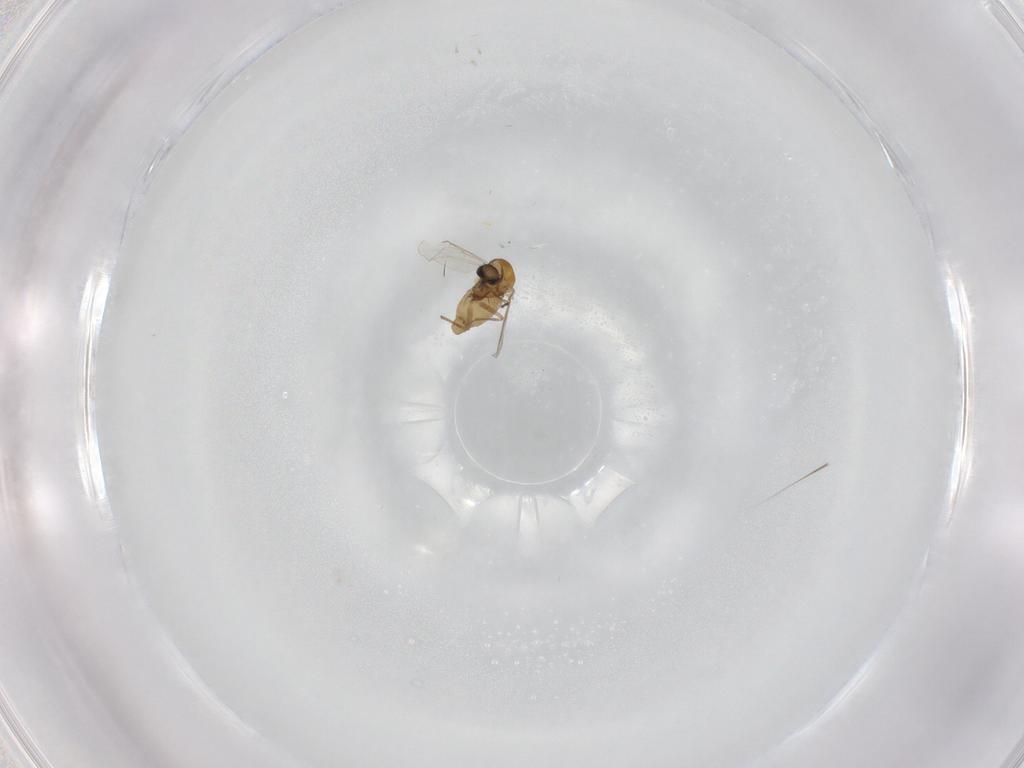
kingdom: Animalia
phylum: Arthropoda
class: Insecta
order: Diptera
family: Chironomidae
